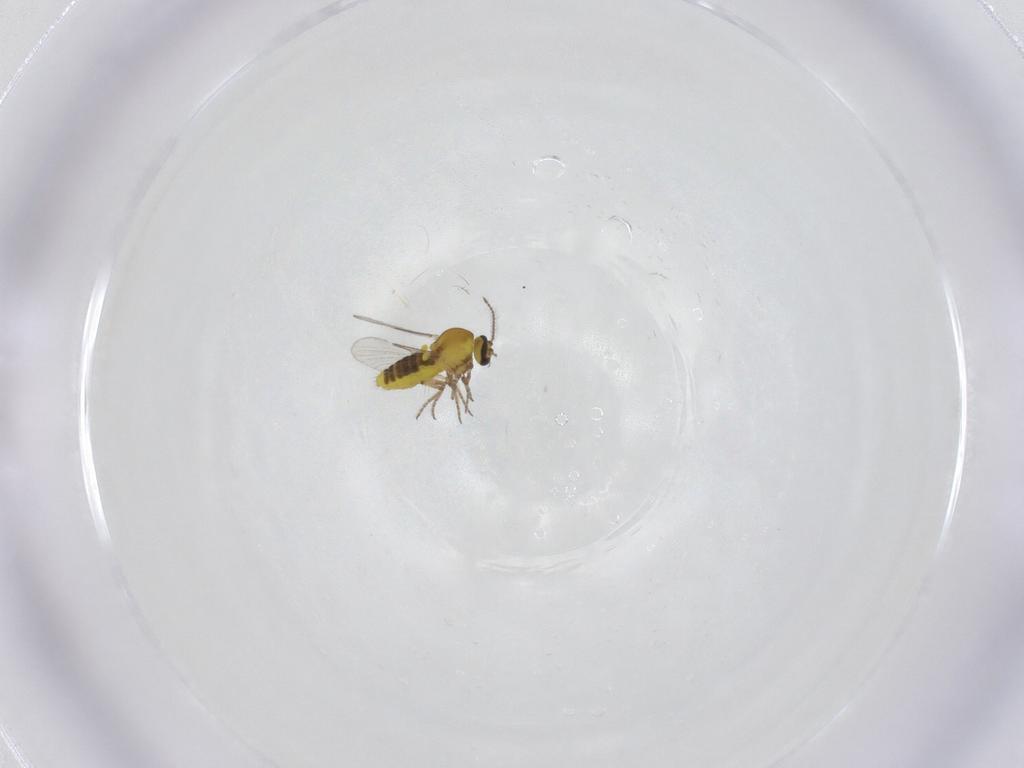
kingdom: Animalia
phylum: Arthropoda
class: Insecta
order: Diptera
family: Ceratopogonidae
